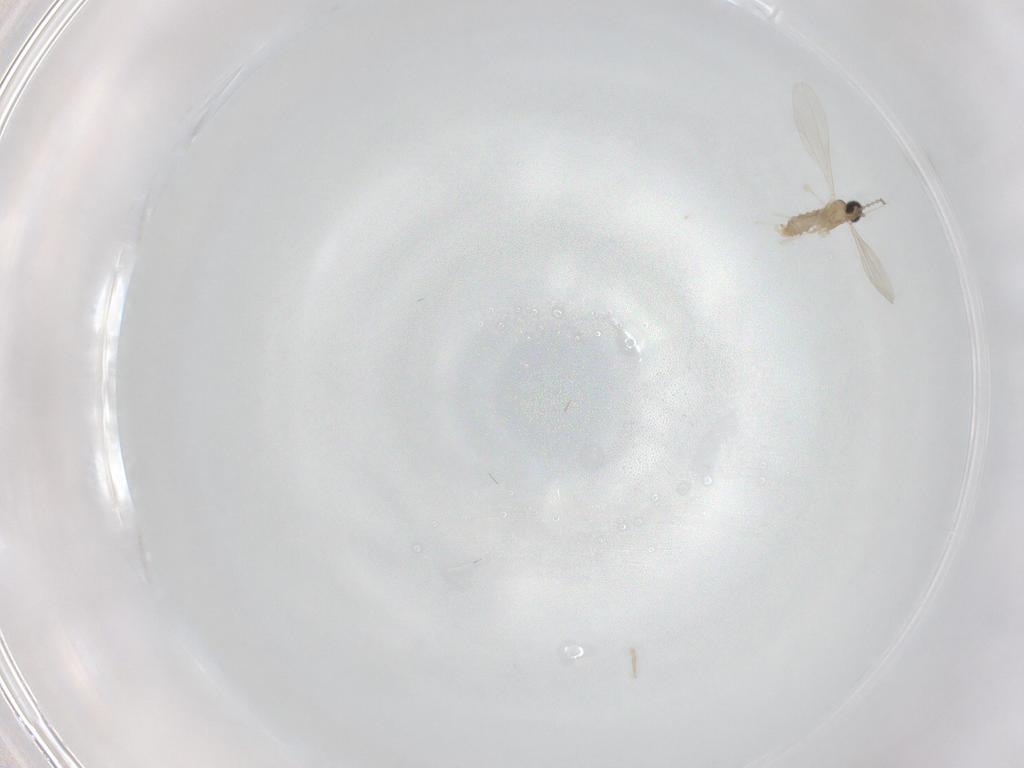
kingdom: Animalia
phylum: Arthropoda
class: Insecta
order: Diptera
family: Cecidomyiidae
